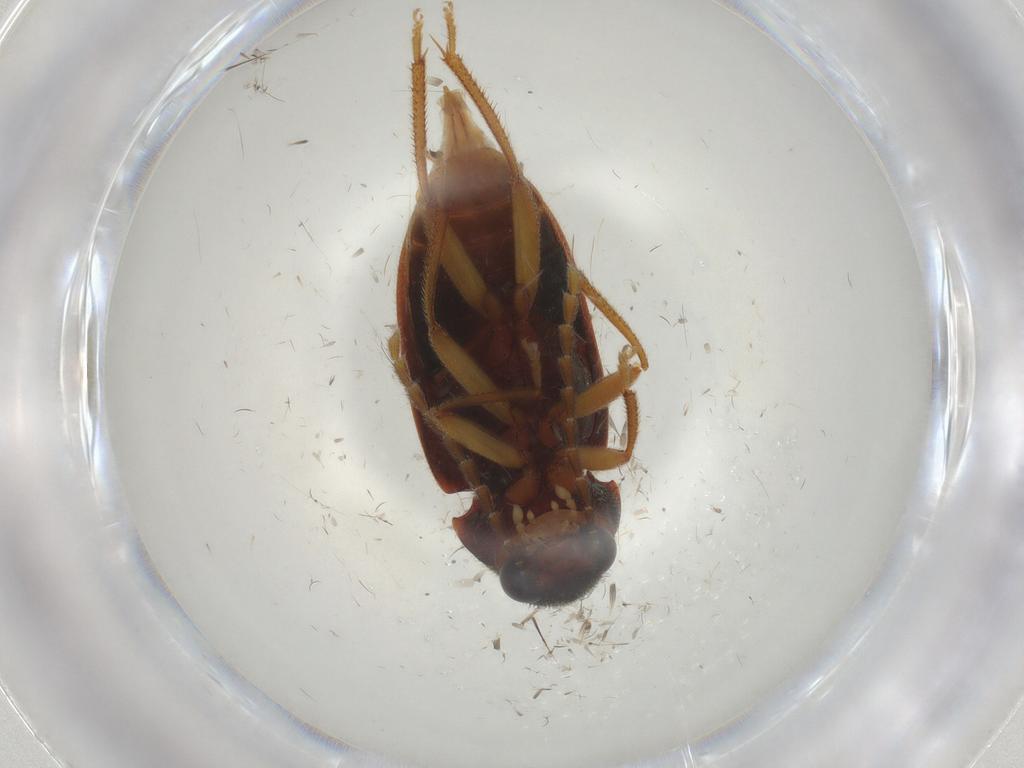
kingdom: Animalia
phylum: Arthropoda
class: Insecta
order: Coleoptera
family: Ptilodactylidae
